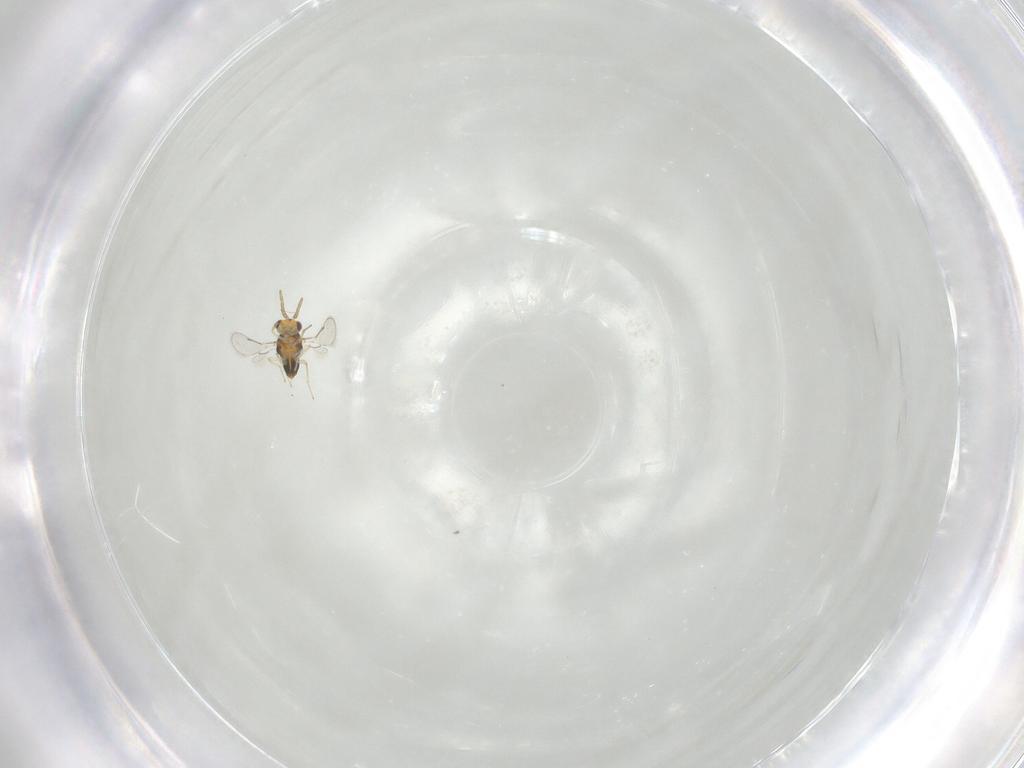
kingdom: Animalia
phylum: Arthropoda
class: Insecta
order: Hymenoptera
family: Aphelinidae
